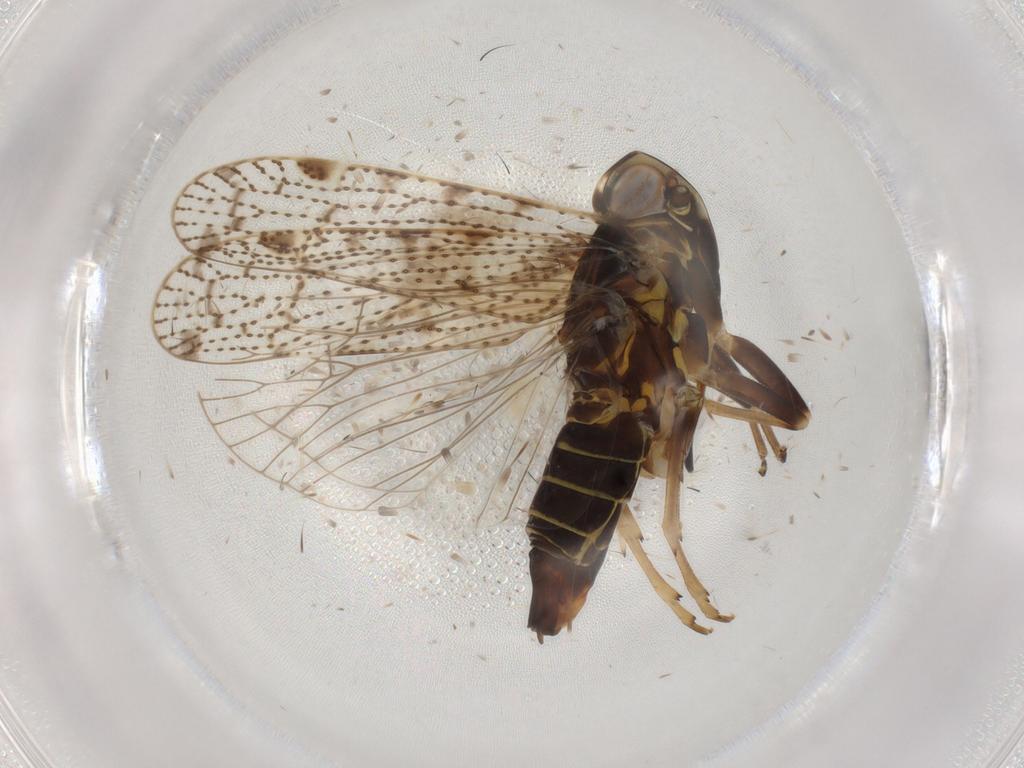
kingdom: Animalia
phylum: Arthropoda
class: Insecta
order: Hemiptera
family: Cixiidae
